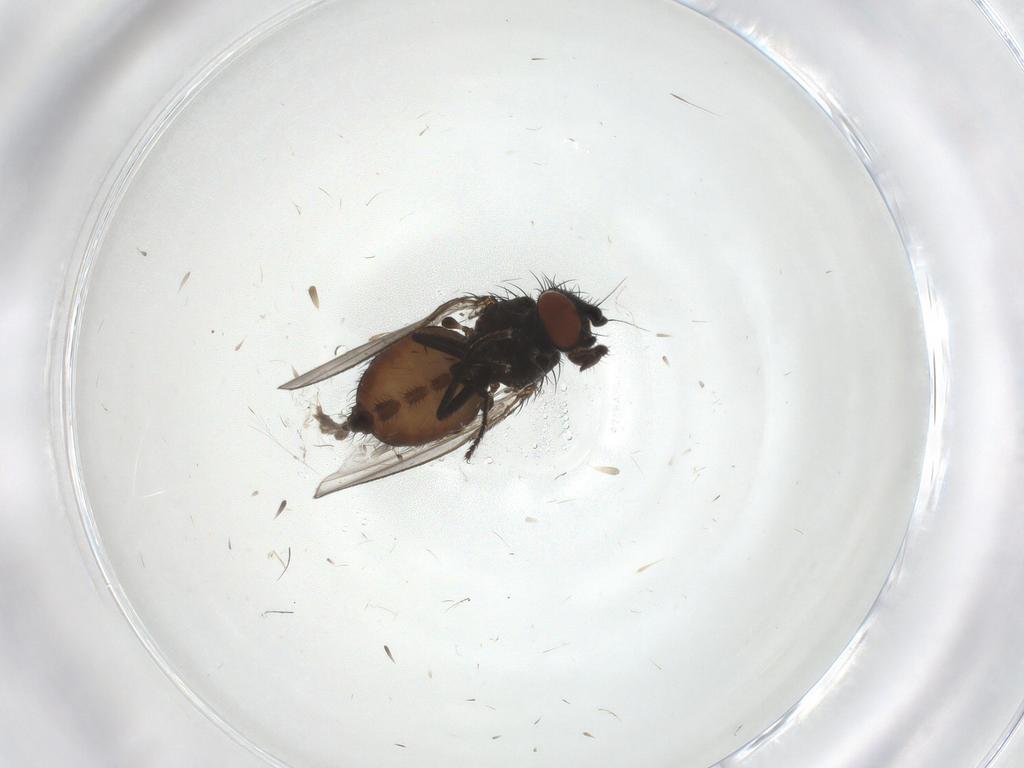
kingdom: Animalia
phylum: Arthropoda
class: Insecta
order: Diptera
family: Milichiidae
